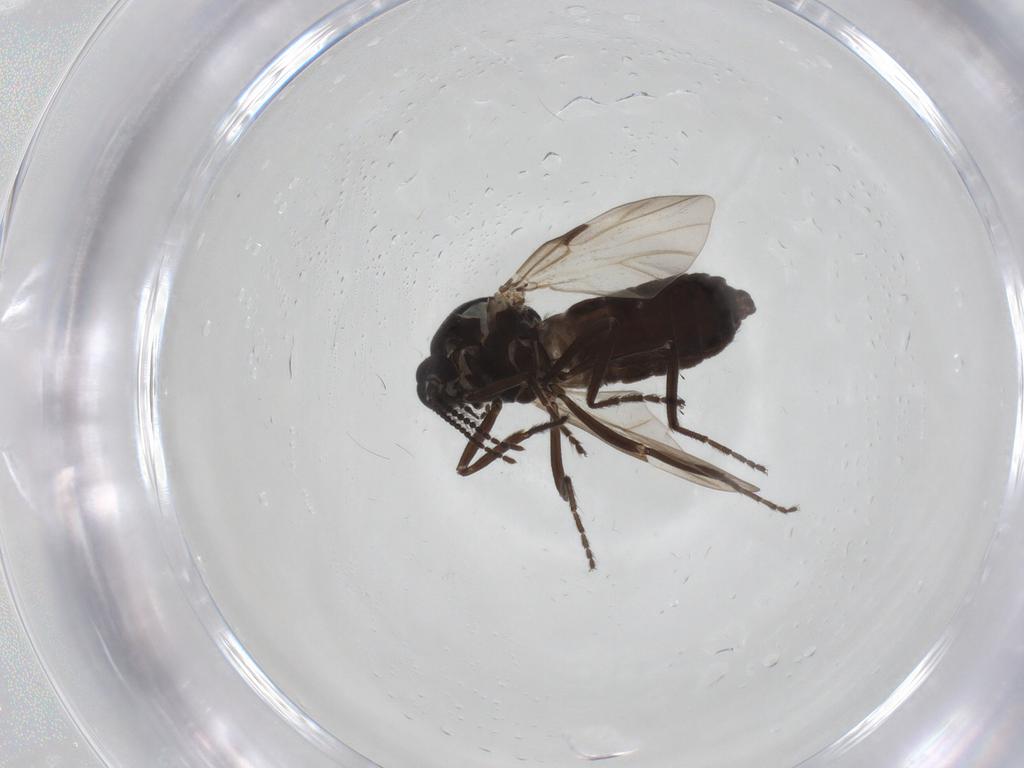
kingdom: Animalia
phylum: Arthropoda
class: Insecta
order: Diptera
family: Ceratopogonidae
